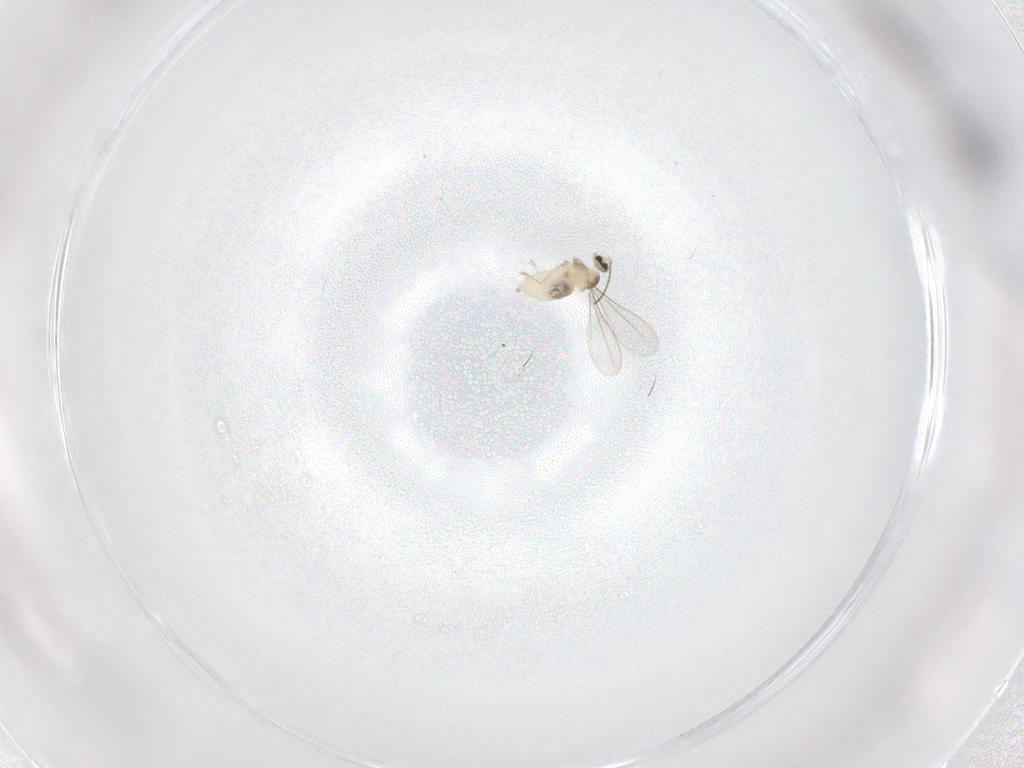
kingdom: Animalia
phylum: Arthropoda
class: Insecta
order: Diptera
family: Cecidomyiidae
